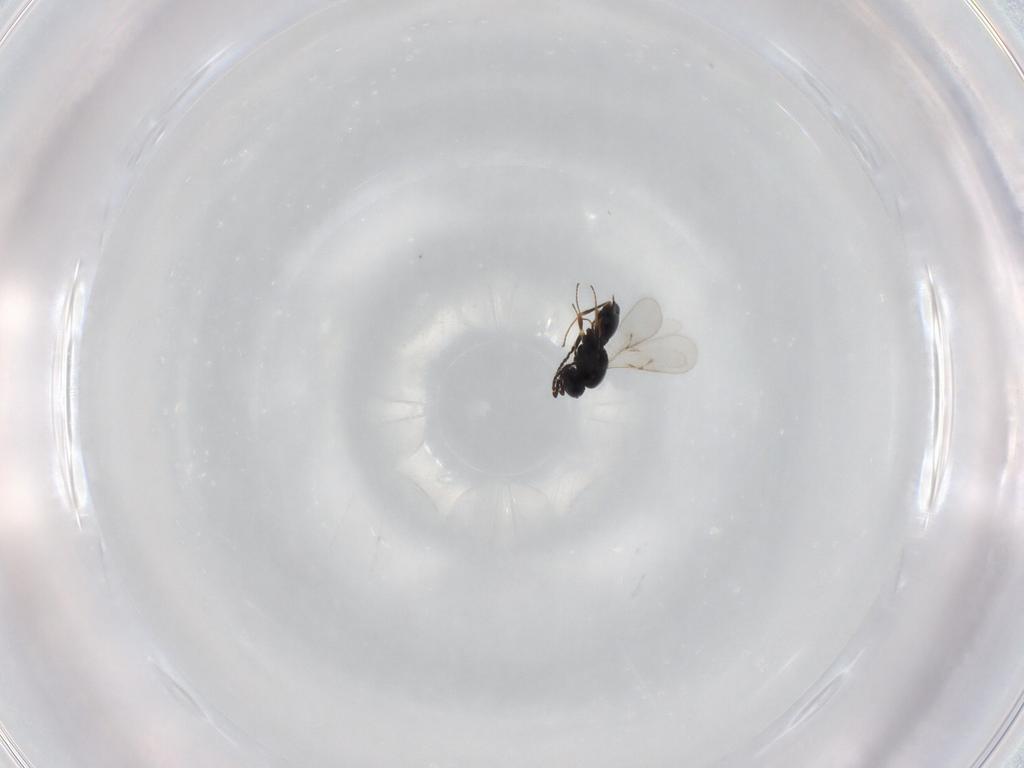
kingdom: Animalia
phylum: Arthropoda
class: Insecta
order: Hymenoptera
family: Scelionidae
